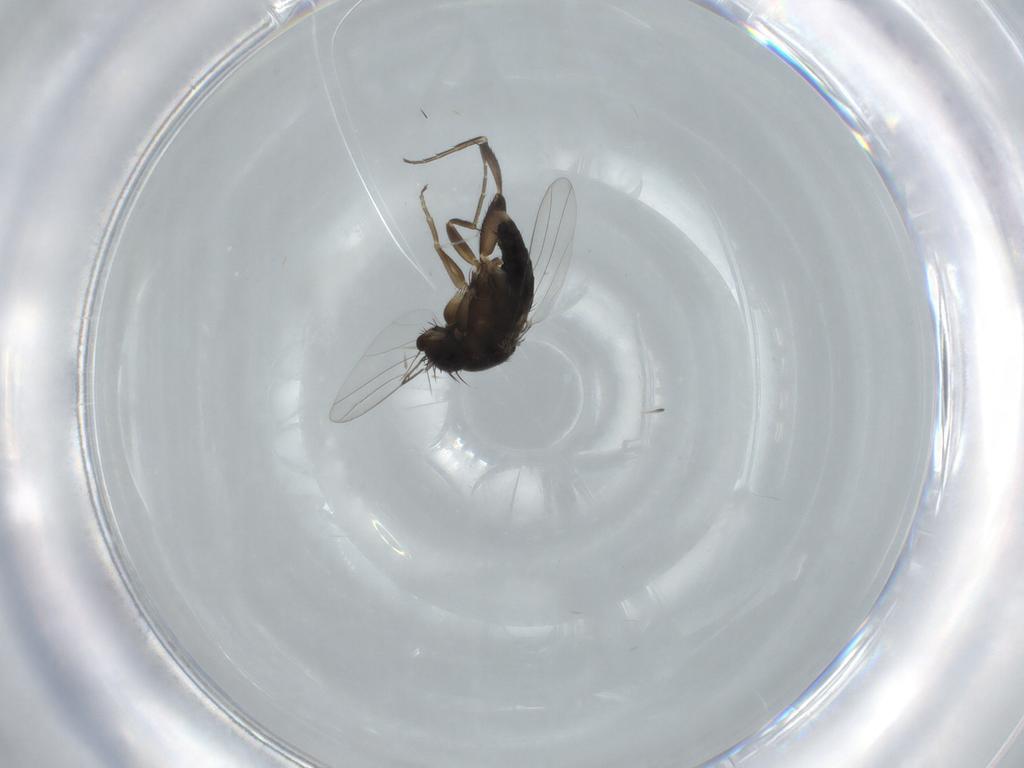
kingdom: Animalia
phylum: Arthropoda
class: Insecta
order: Diptera
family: Phoridae
